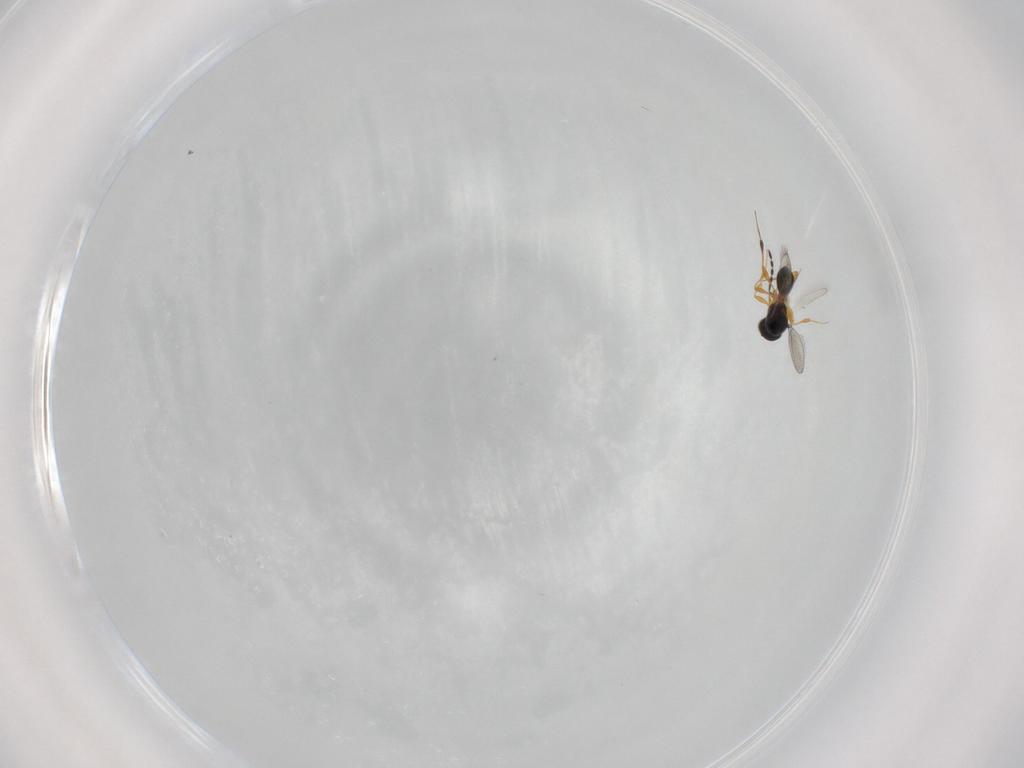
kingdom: Animalia
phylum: Arthropoda
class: Insecta
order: Hymenoptera
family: Platygastridae
